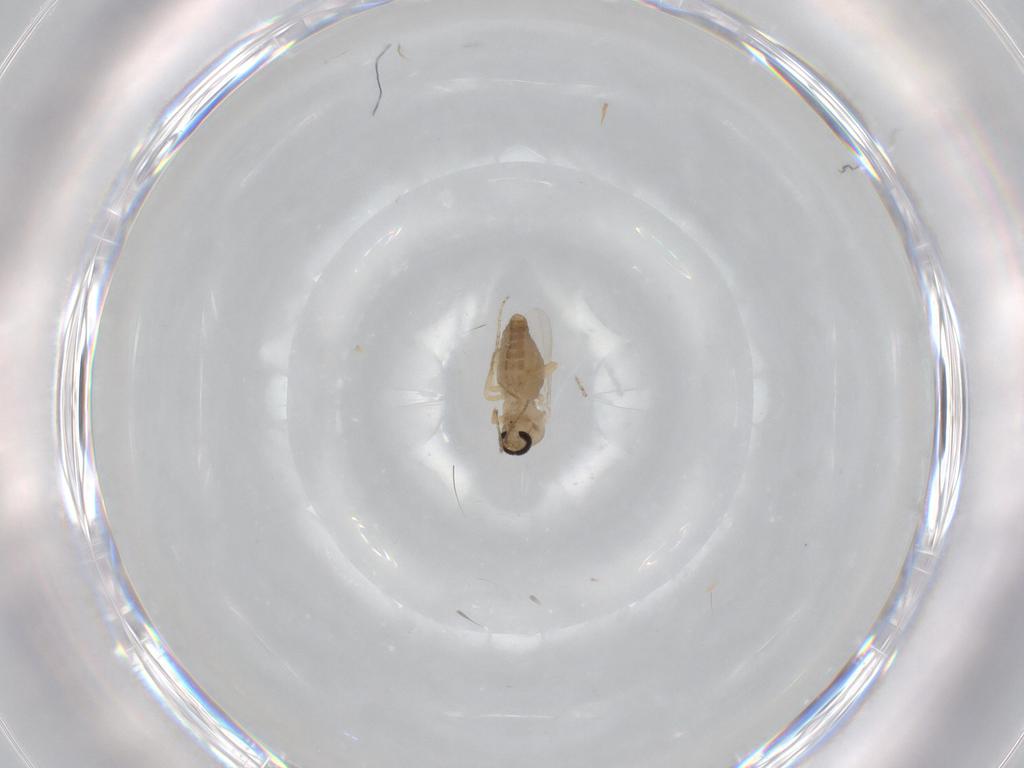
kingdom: Animalia
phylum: Arthropoda
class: Insecta
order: Diptera
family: Ceratopogonidae
